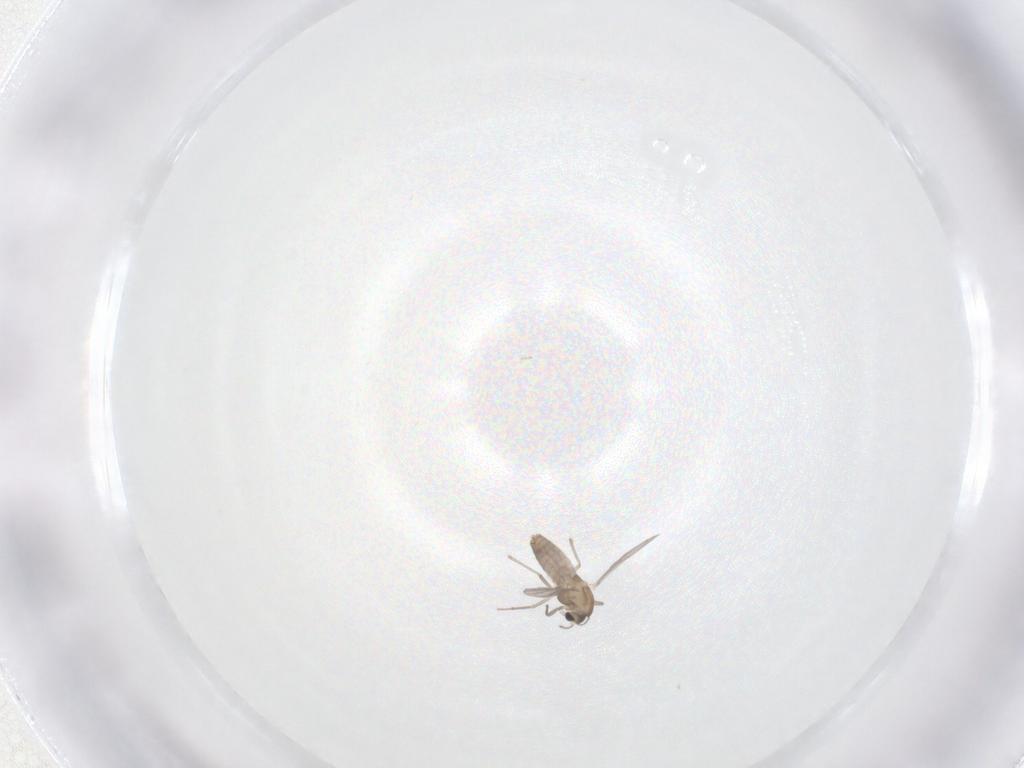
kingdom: Animalia
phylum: Arthropoda
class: Insecta
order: Diptera
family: Chironomidae
